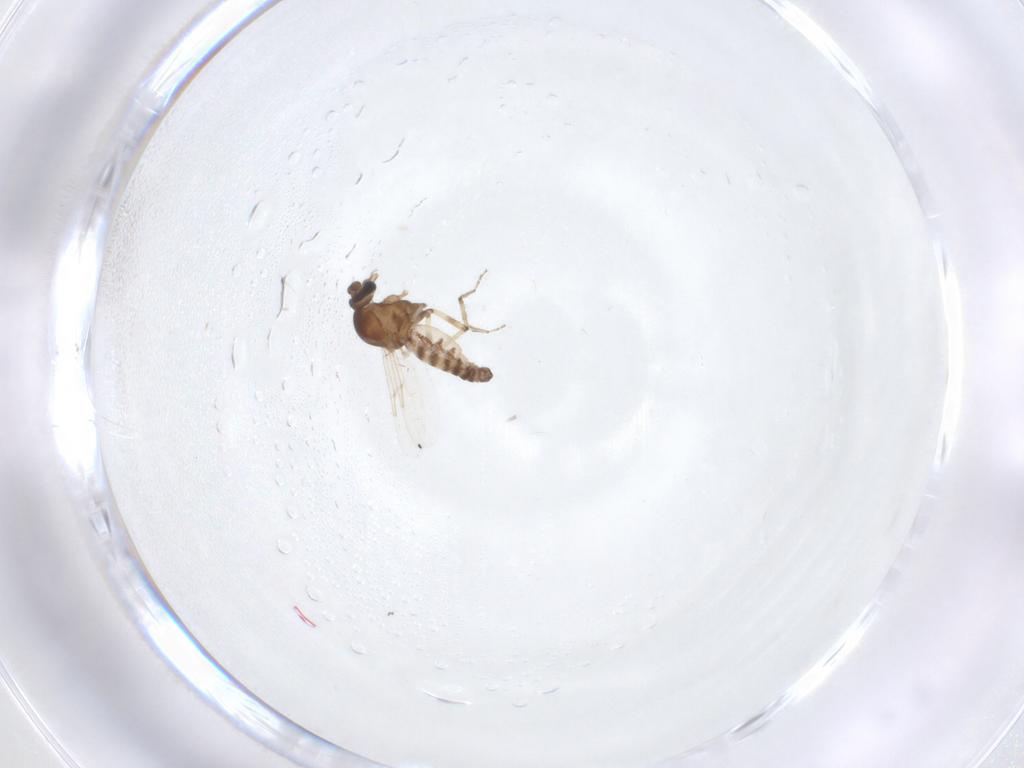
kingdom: Animalia
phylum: Arthropoda
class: Insecta
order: Diptera
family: Ceratopogonidae
